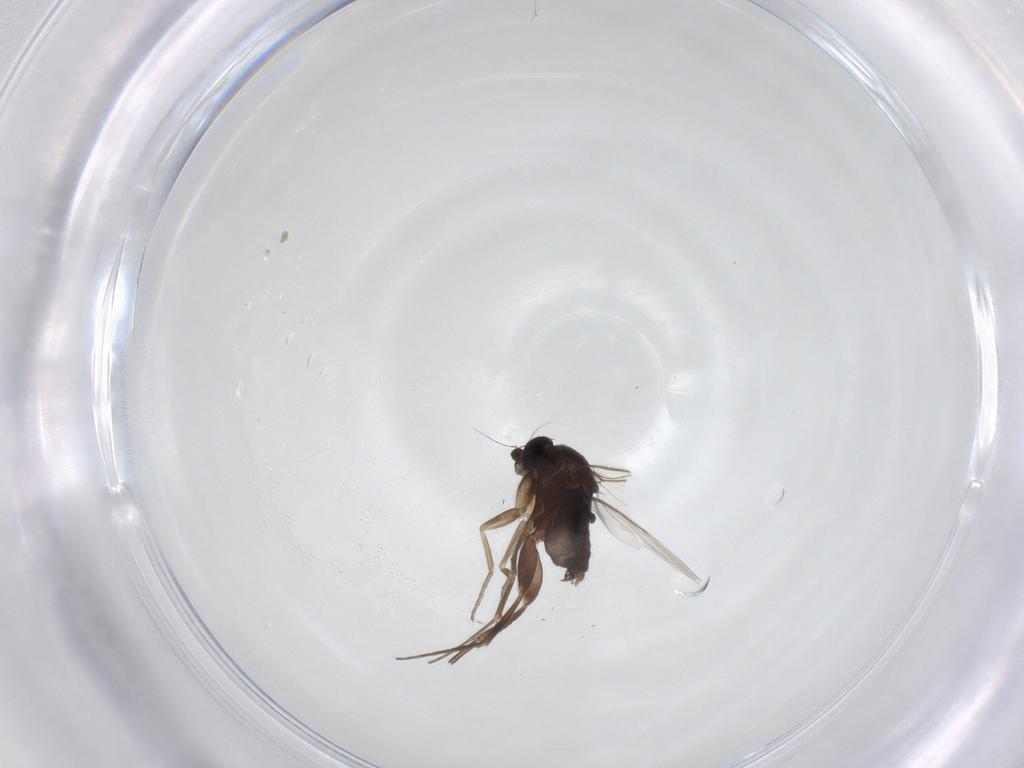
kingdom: Animalia
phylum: Arthropoda
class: Insecta
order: Diptera
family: Phoridae
